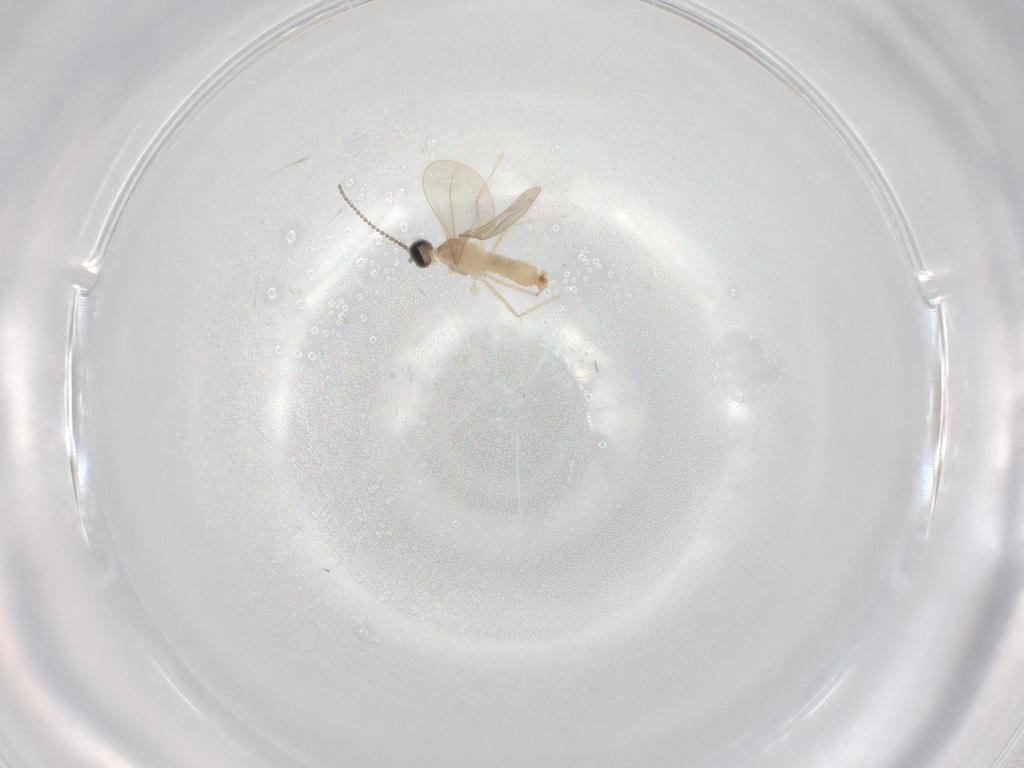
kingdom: Animalia
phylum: Arthropoda
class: Insecta
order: Diptera
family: Cecidomyiidae
